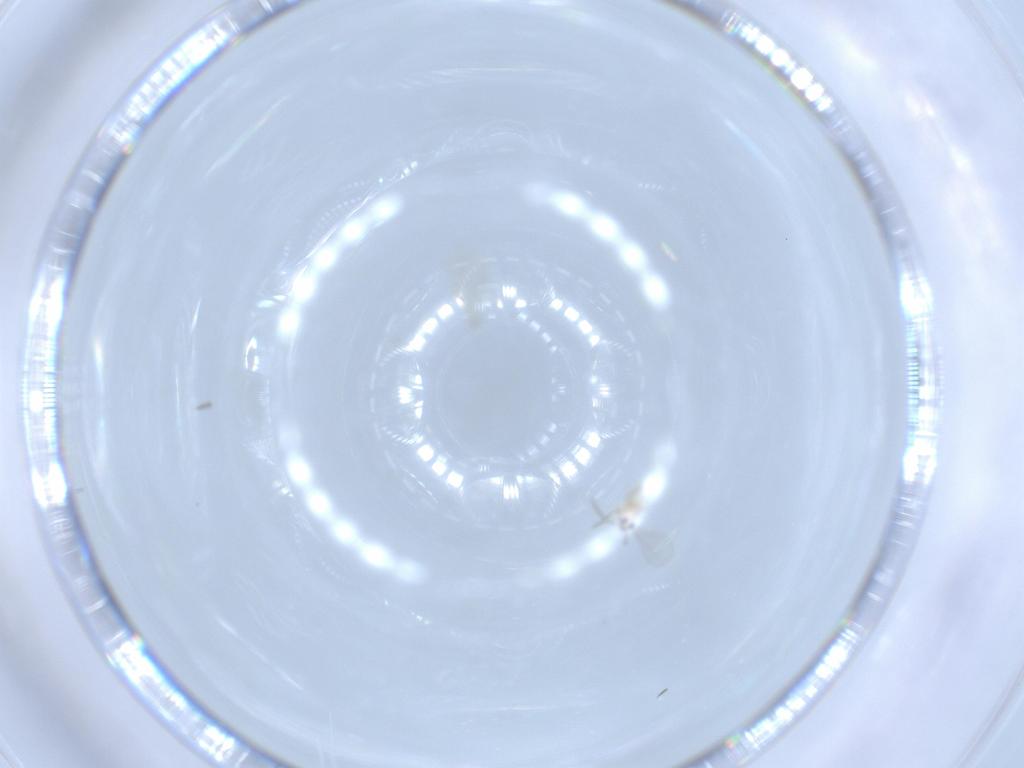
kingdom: Animalia
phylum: Arthropoda
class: Insecta
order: Diptera
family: Cecidomyiidae
